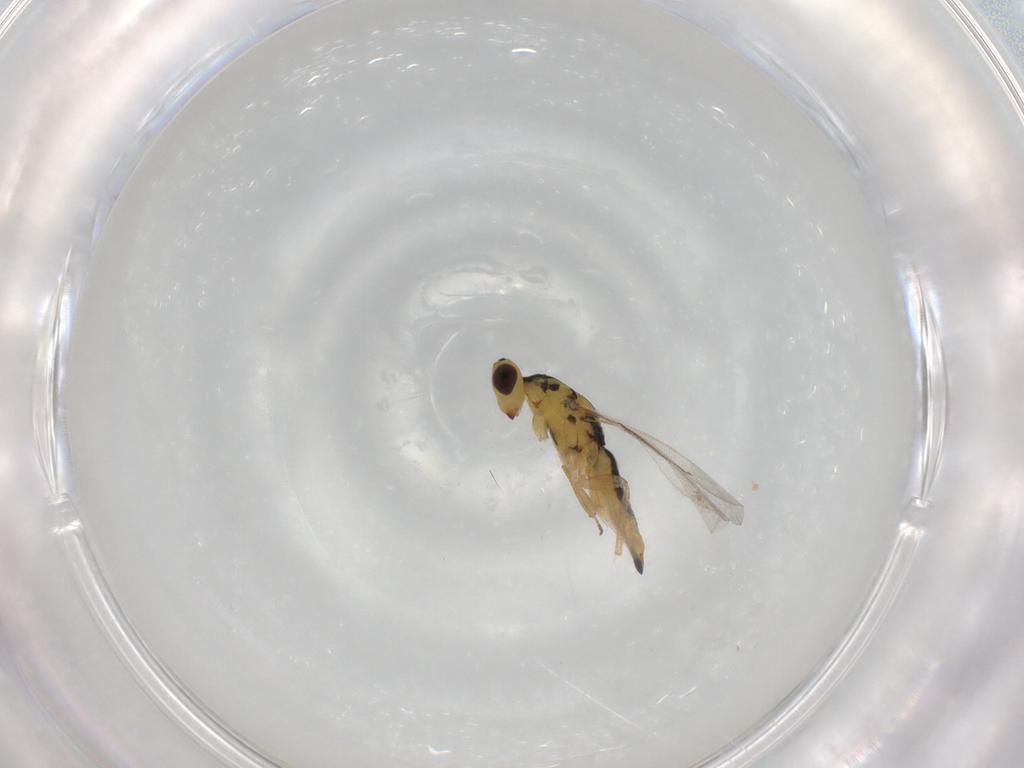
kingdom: Animalia
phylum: Arthropoda
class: Insecta
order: Hymenoptera
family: Eulophidae
